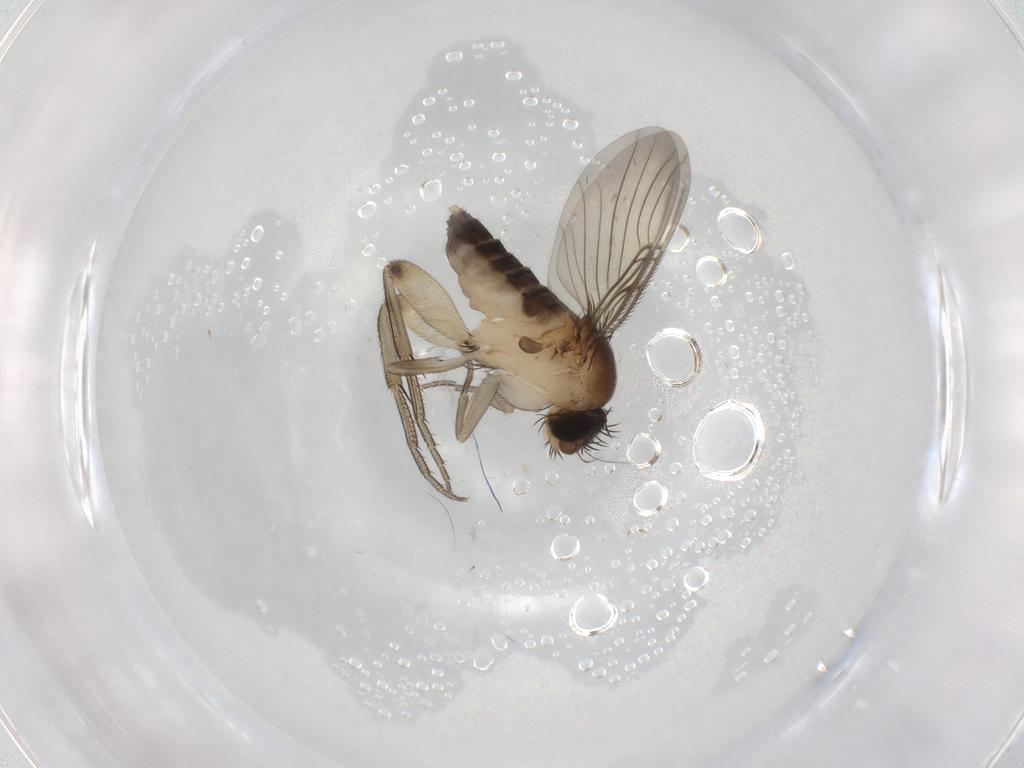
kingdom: Animalia
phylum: Arthropoda
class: Insecta
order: Diptera
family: Phoridae
